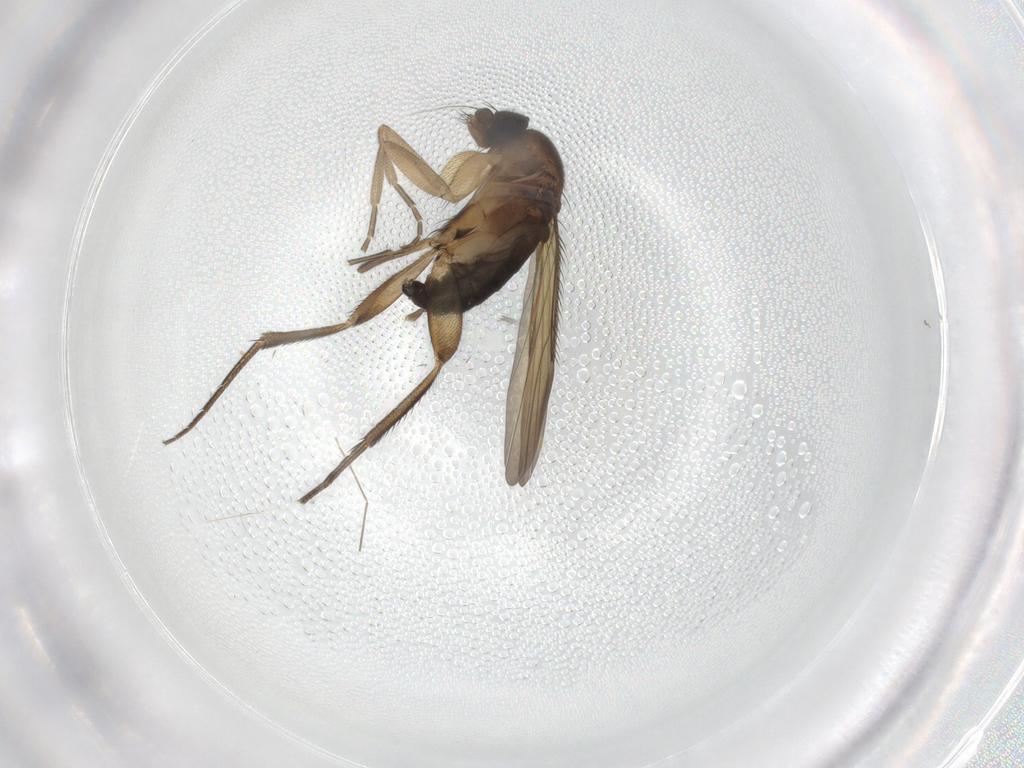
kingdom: Animalia
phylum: Arthropoda
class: Insecta
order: Diptera
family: Phoridae
